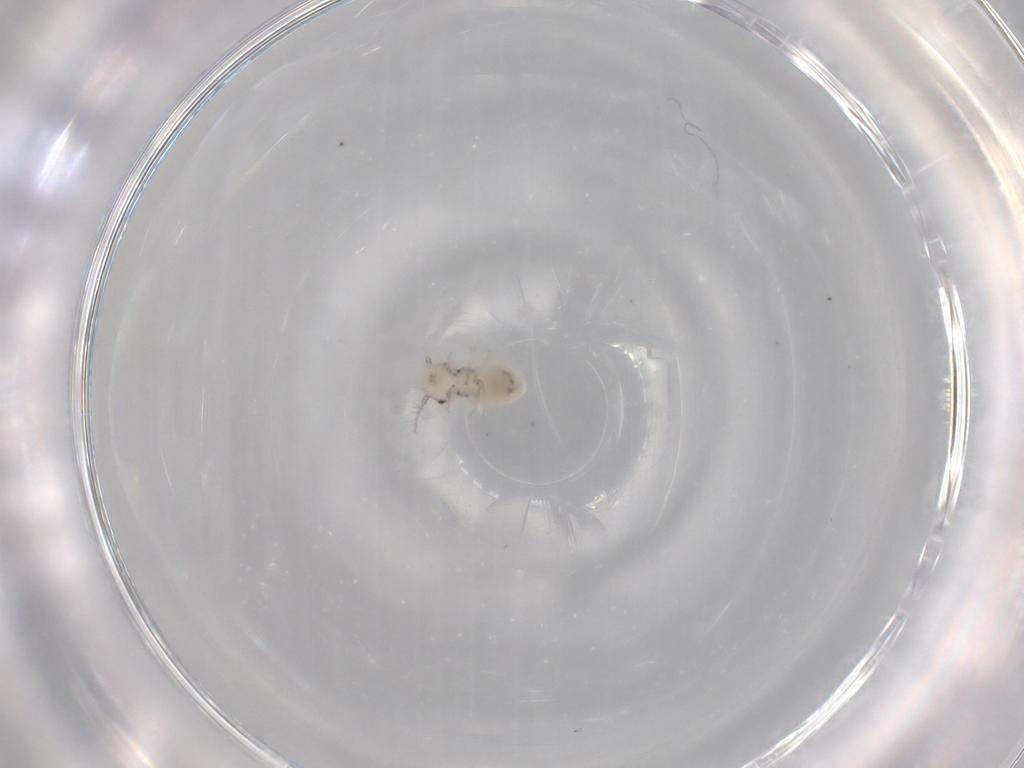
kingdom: Animalia
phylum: Arthropoda
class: Insecta
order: Psocodea
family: Pseudocaeciliidae
